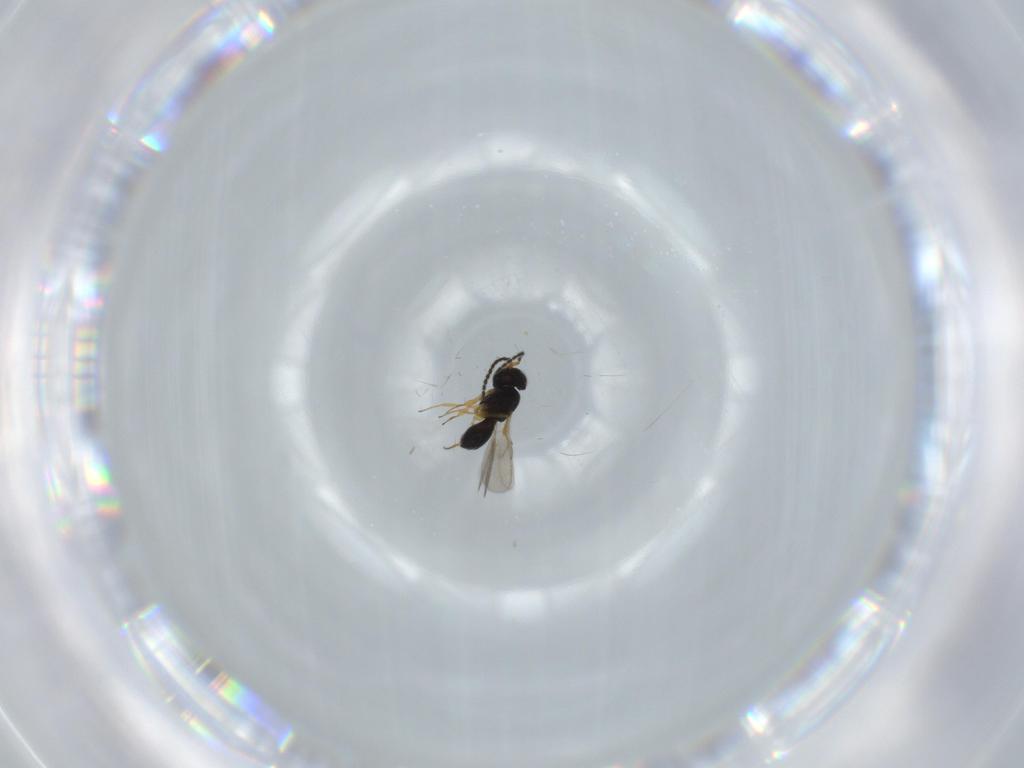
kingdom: Animalia
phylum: Arthropoda
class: Insecta
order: Hymenoptera
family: Scelionidae
